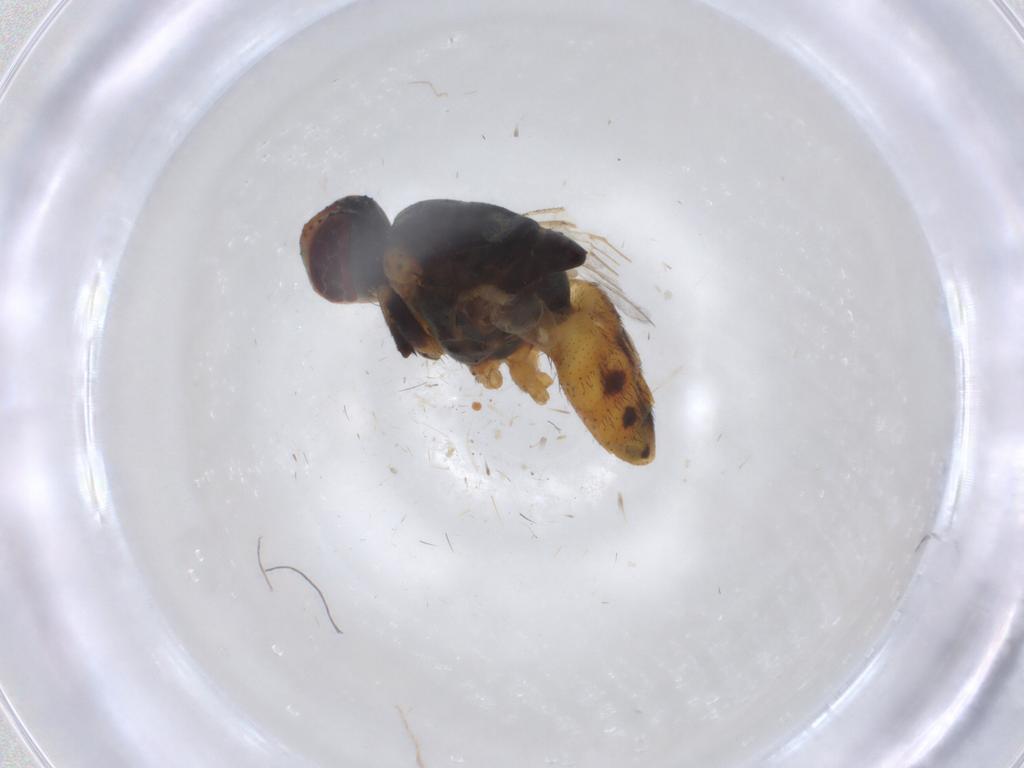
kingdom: Animalia
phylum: Arthropoda
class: Insecta
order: Diptera
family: Muscidae
